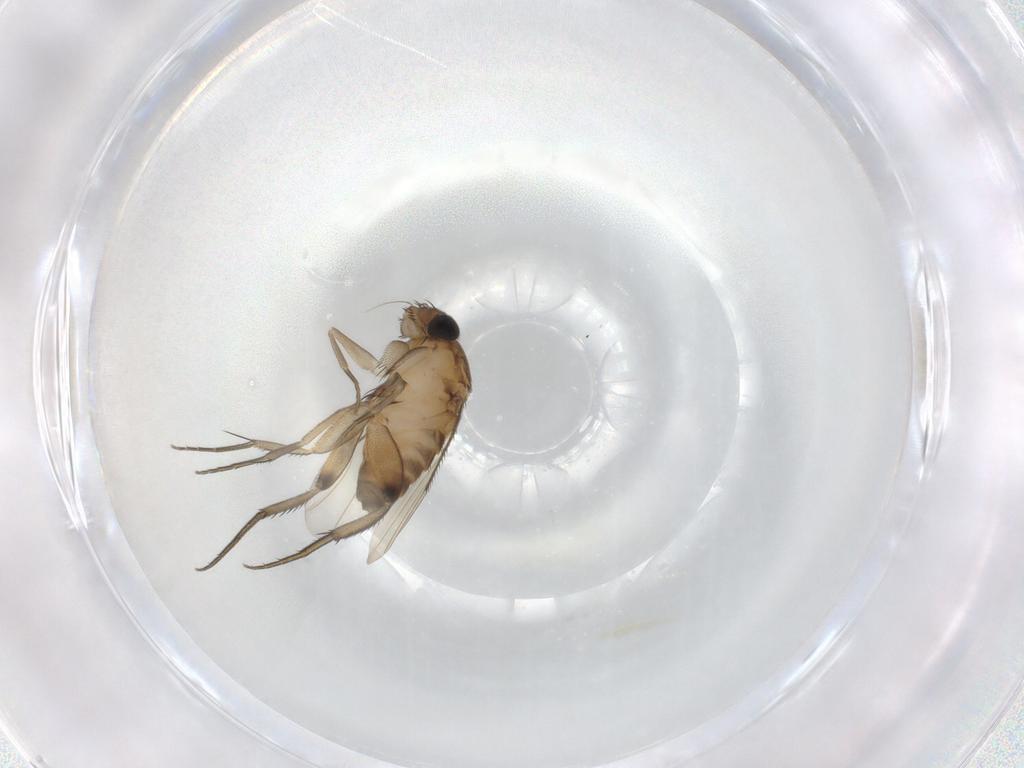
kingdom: Animalia
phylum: Arthropoda
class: Insecta
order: Diptera
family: Phoridae
